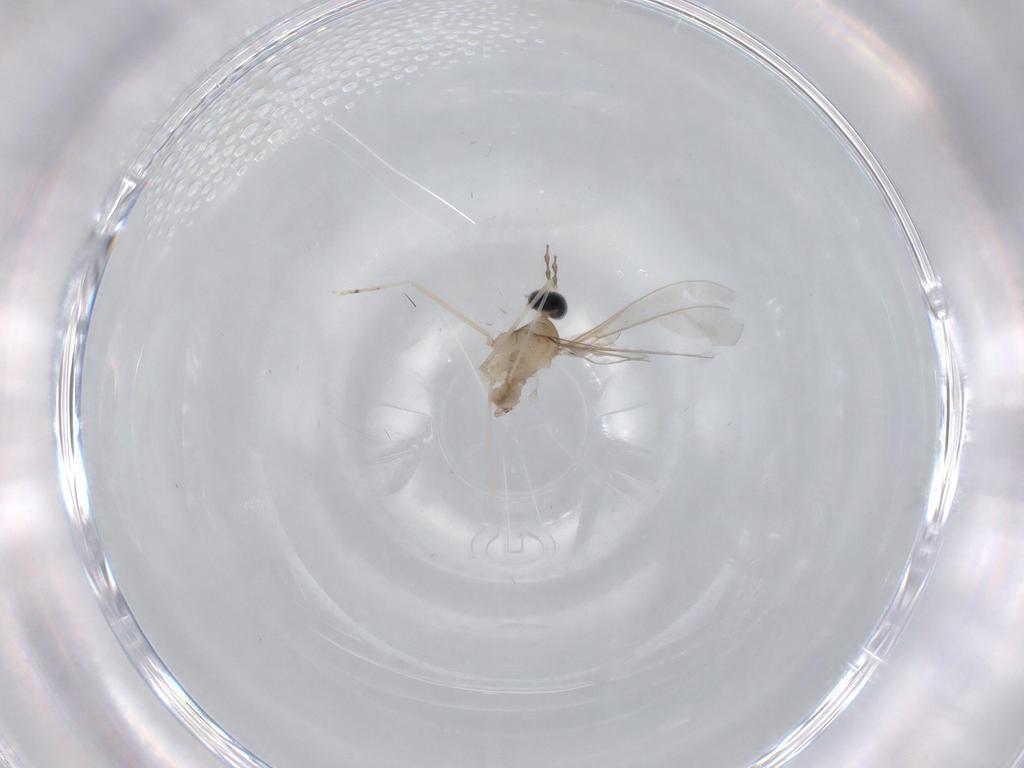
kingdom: Animalia
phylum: Arthropoda
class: Insecta
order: Diptera
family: Cecidomyiidae
